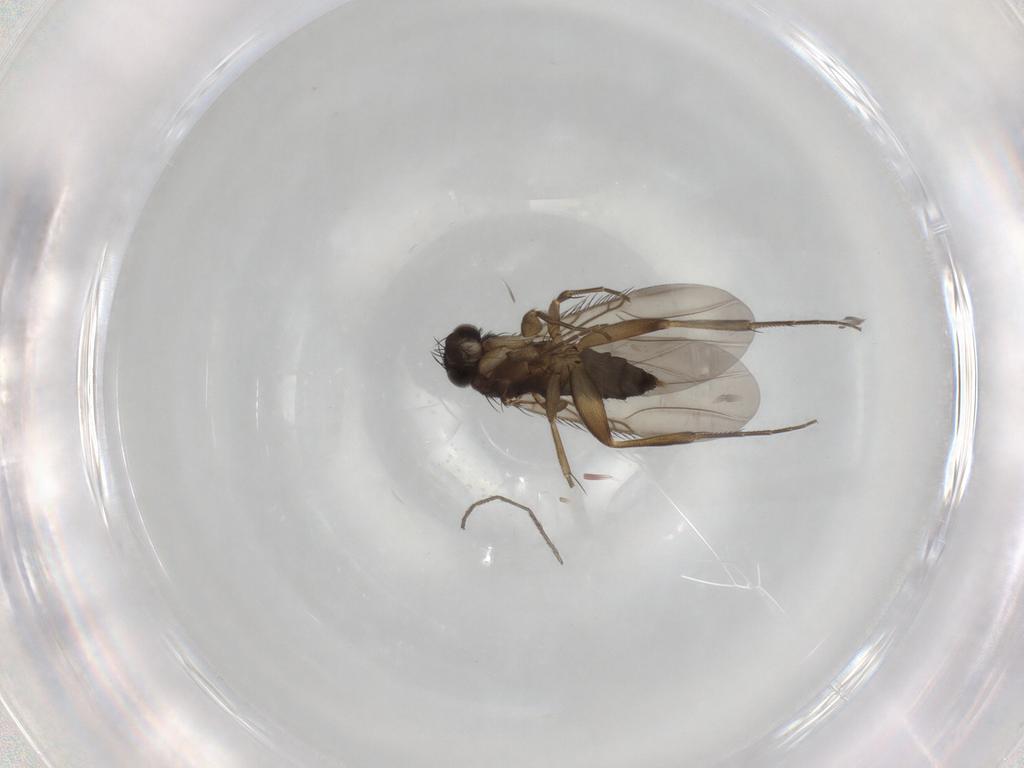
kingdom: Animalia
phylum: Arthropoda
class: Insecta
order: Diptera
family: Phoridae
